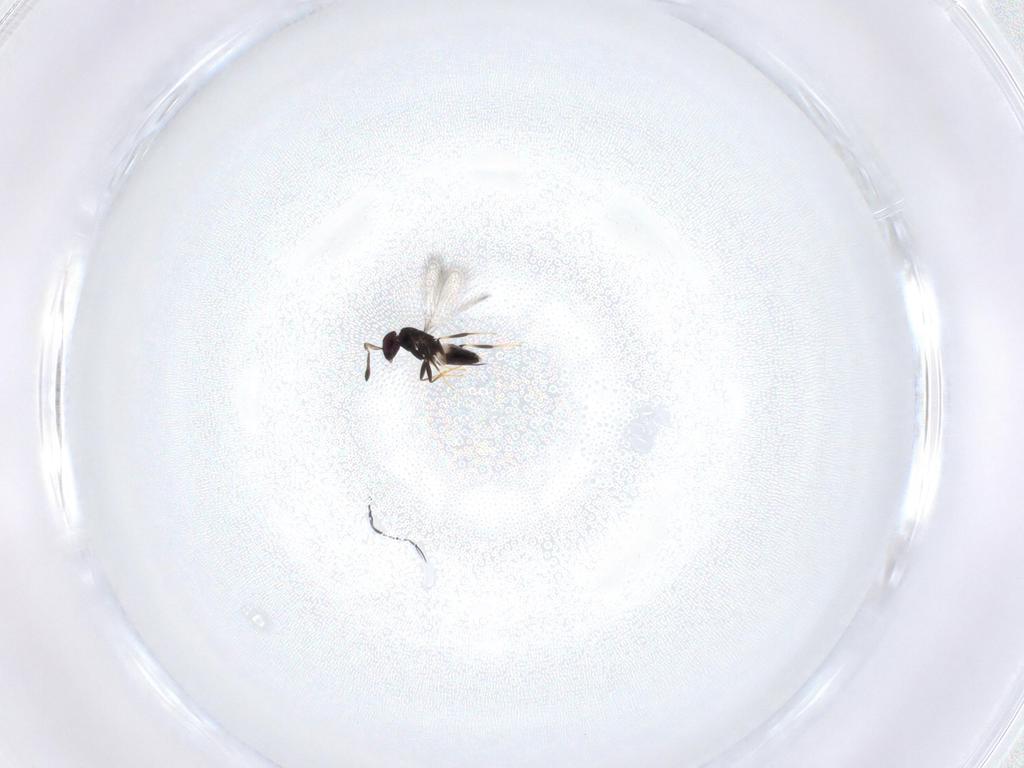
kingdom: Animalia
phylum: Arthropoda
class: Insecta
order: Hymenoptera
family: Mymaridae
